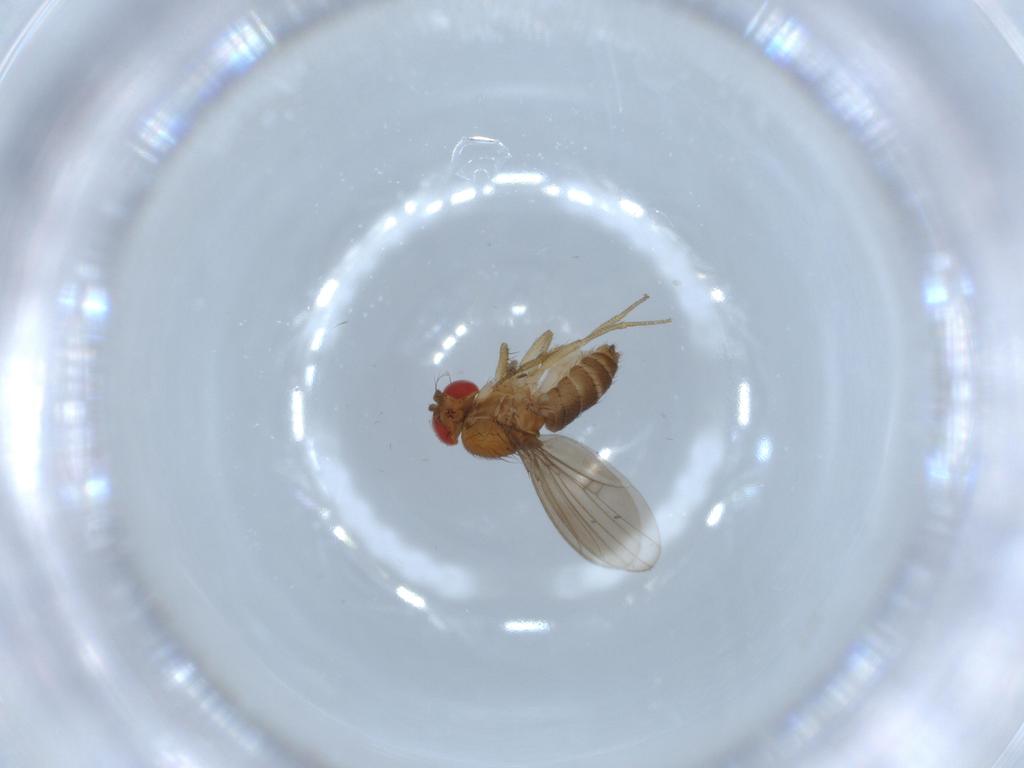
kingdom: Animalia
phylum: Arthropoda
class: Insecta
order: Diptera
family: Drosophilidae
